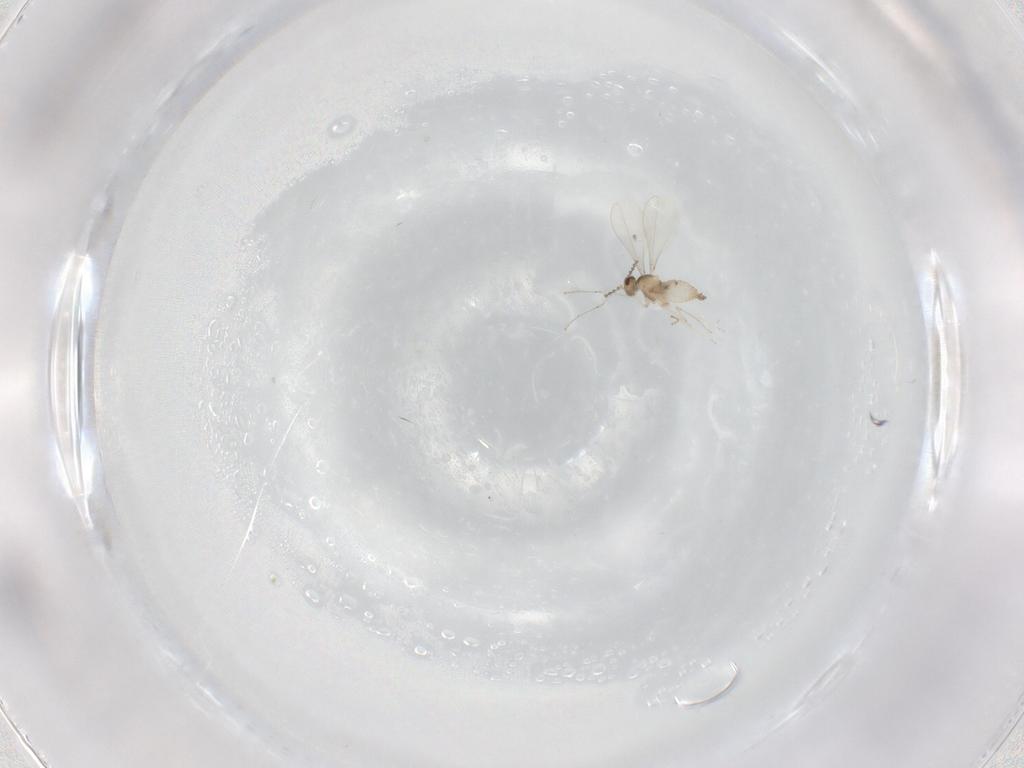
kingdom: Animalia
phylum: Arthropoda
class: Insecta
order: Diptera
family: Cecidomyiidae
